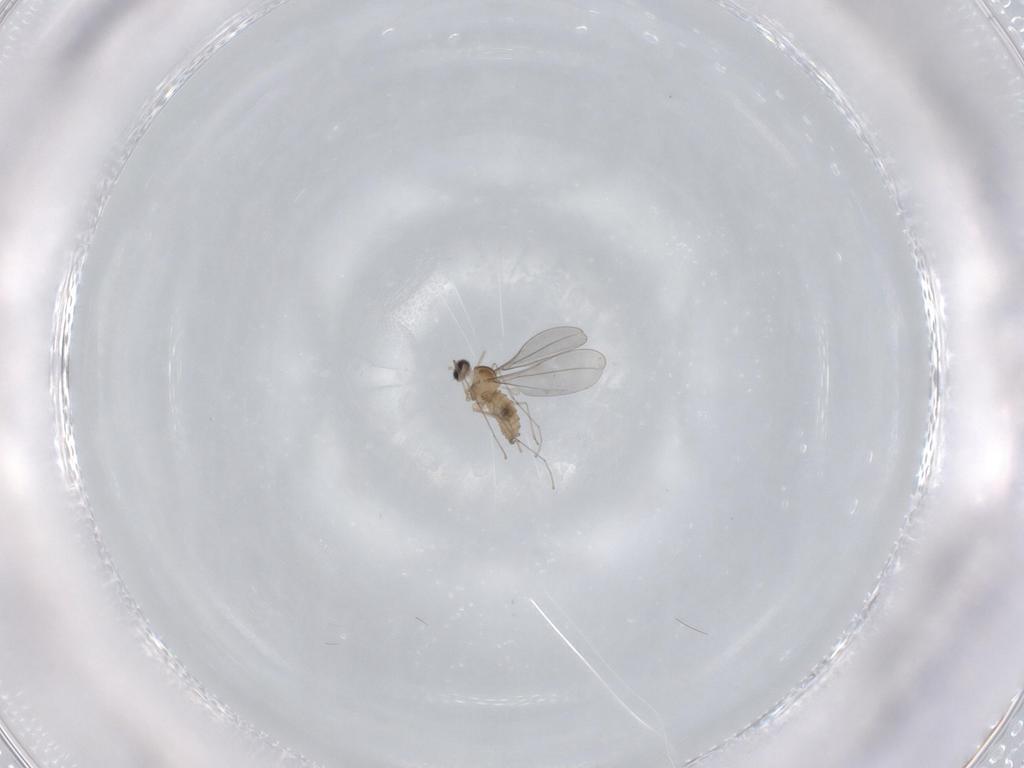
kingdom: Animalia
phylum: Arthropoda
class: Insecta
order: Diptera
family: Cecidomyiidae
